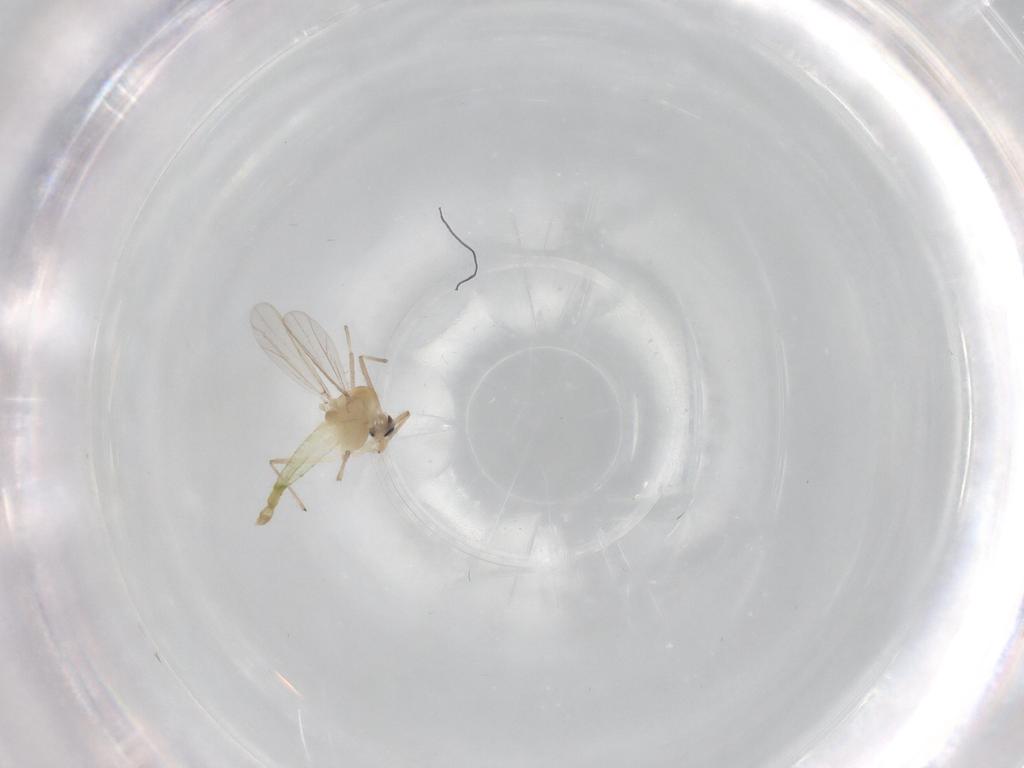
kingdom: Animalia
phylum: Arthropoda
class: Insecta
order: Diptera
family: Chironomidae
